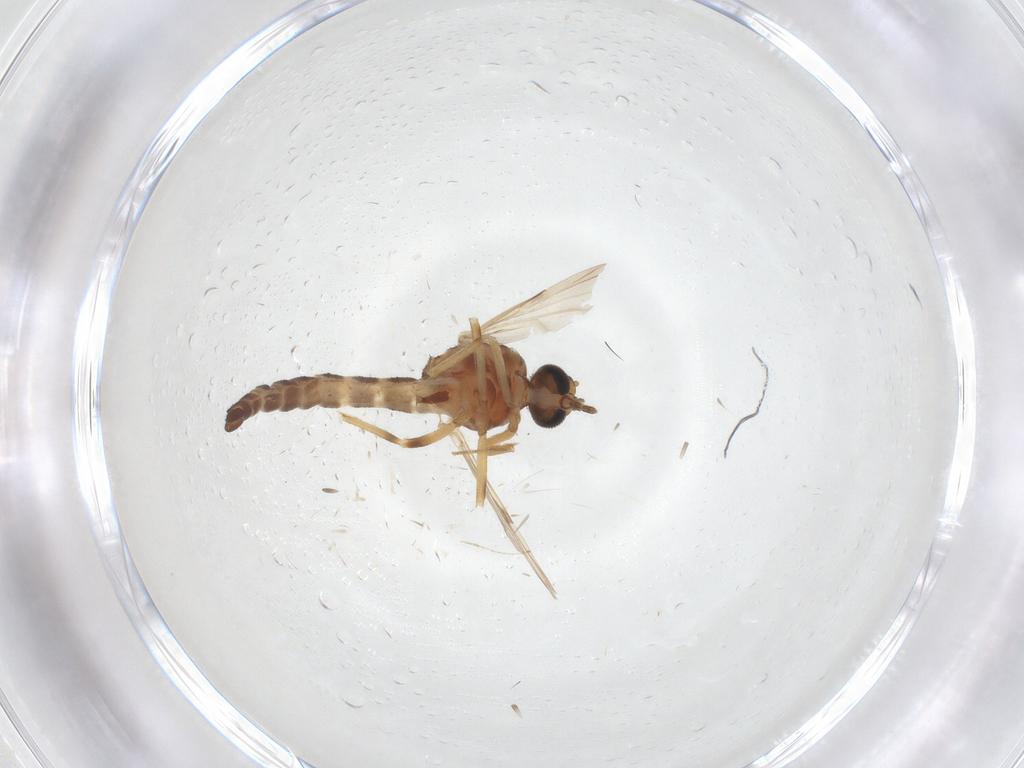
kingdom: Animalia
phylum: Arthropoda
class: Insecta
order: Diptera
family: Ceratopogonidae
